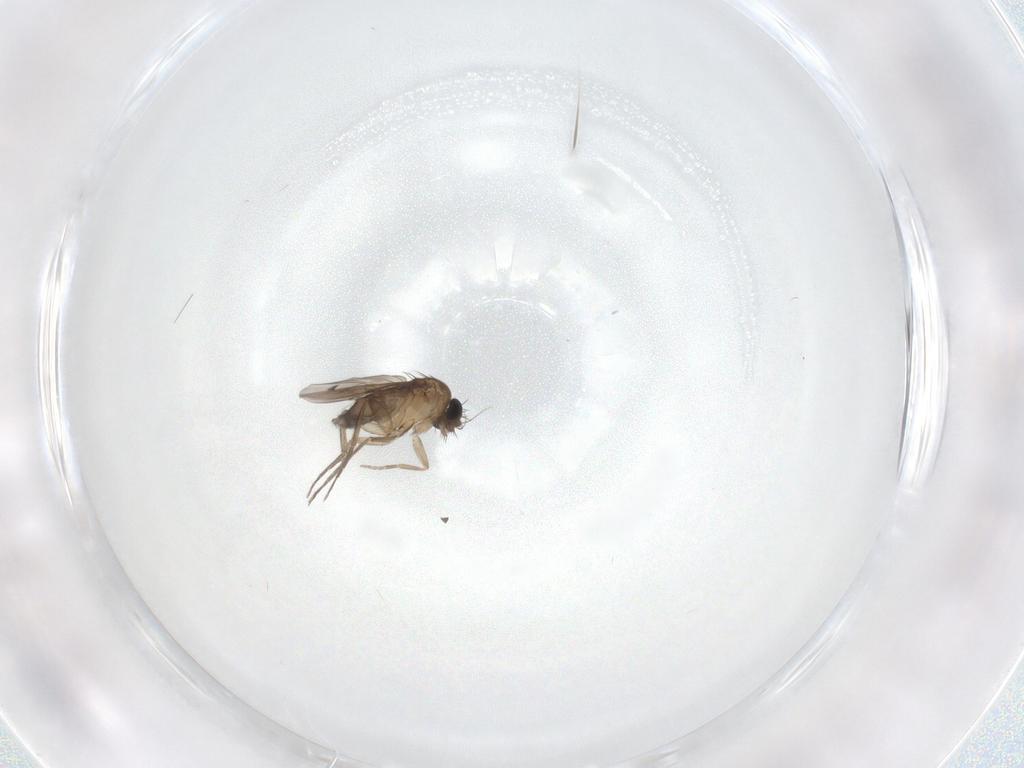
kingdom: Animalia
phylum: Arthropoda
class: Insecta
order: Diptera
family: Phoridae
